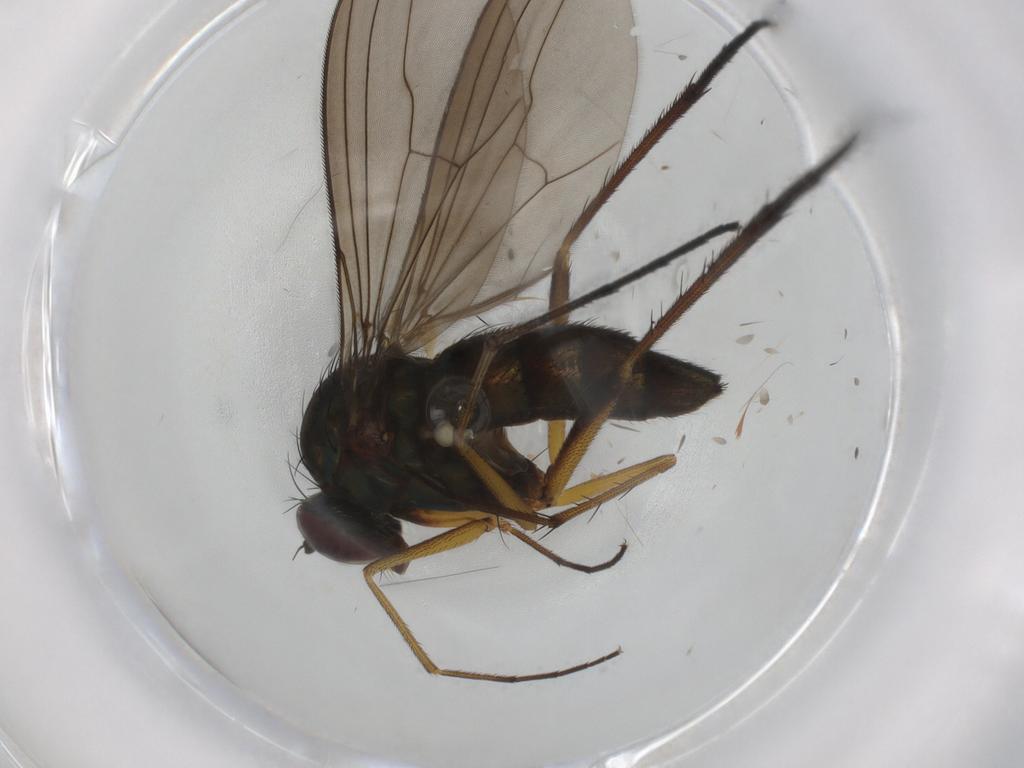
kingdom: Animalia
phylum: Arthropoda
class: Insecta
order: Diptera
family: Dolichopodidae
